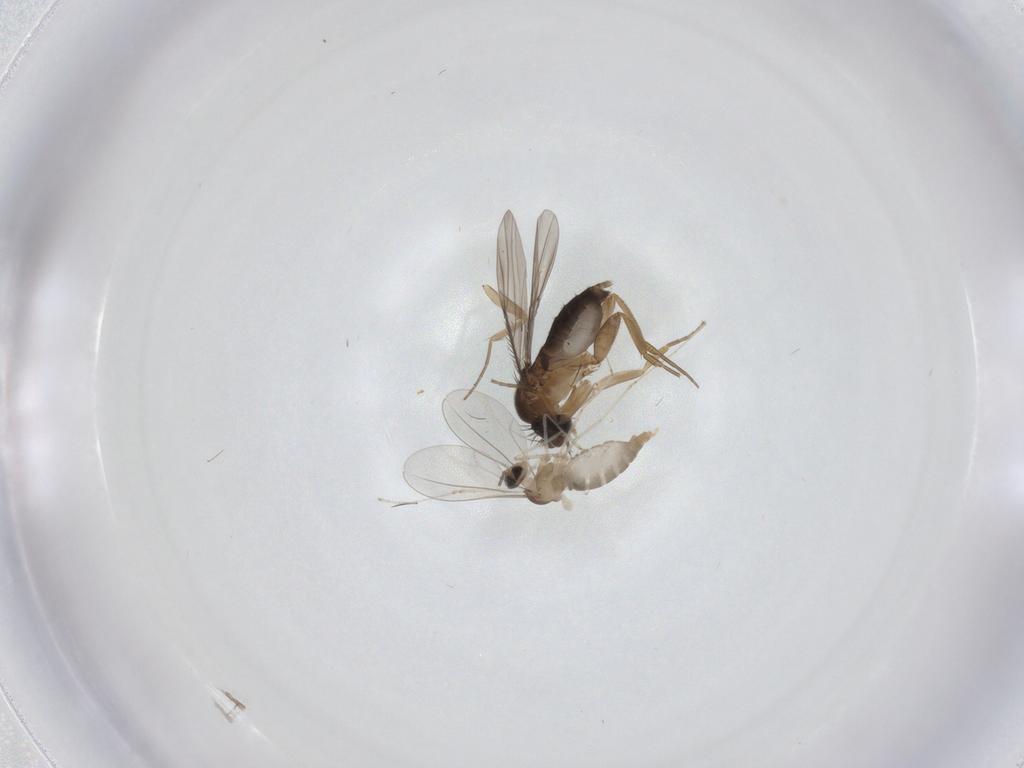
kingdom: Animalia
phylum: Arthropoda
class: Insecta
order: Diptera
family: Phoridae
